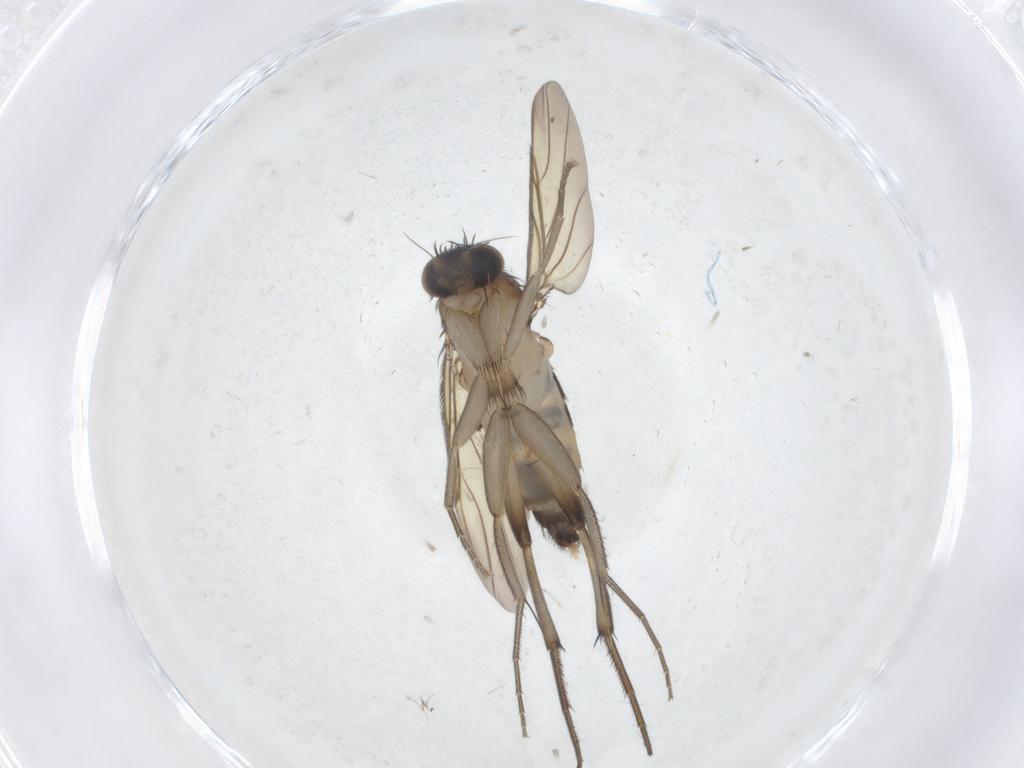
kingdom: Animalia
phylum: Arthropoda
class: Insecta
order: Diptera
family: Phoridae
